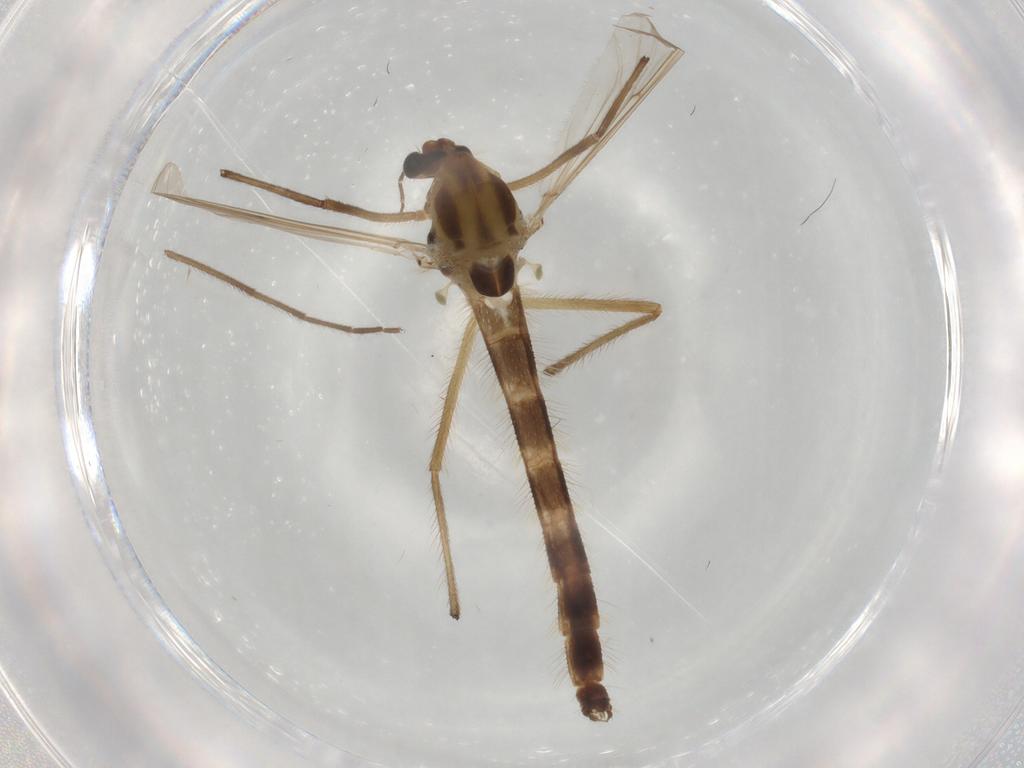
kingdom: Animalia
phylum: Arthropoda
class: Insecta
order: Diptera
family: Chironomidae
